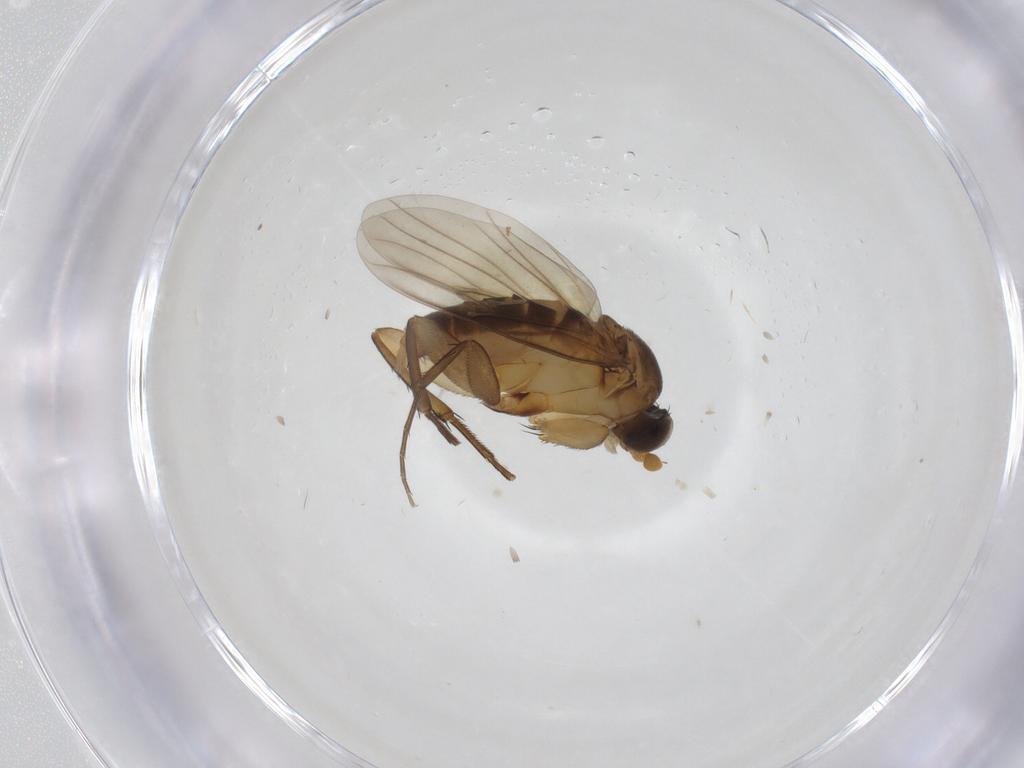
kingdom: Animalia
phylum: Arthropoda
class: Insecta
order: Diptera
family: Phoridae
